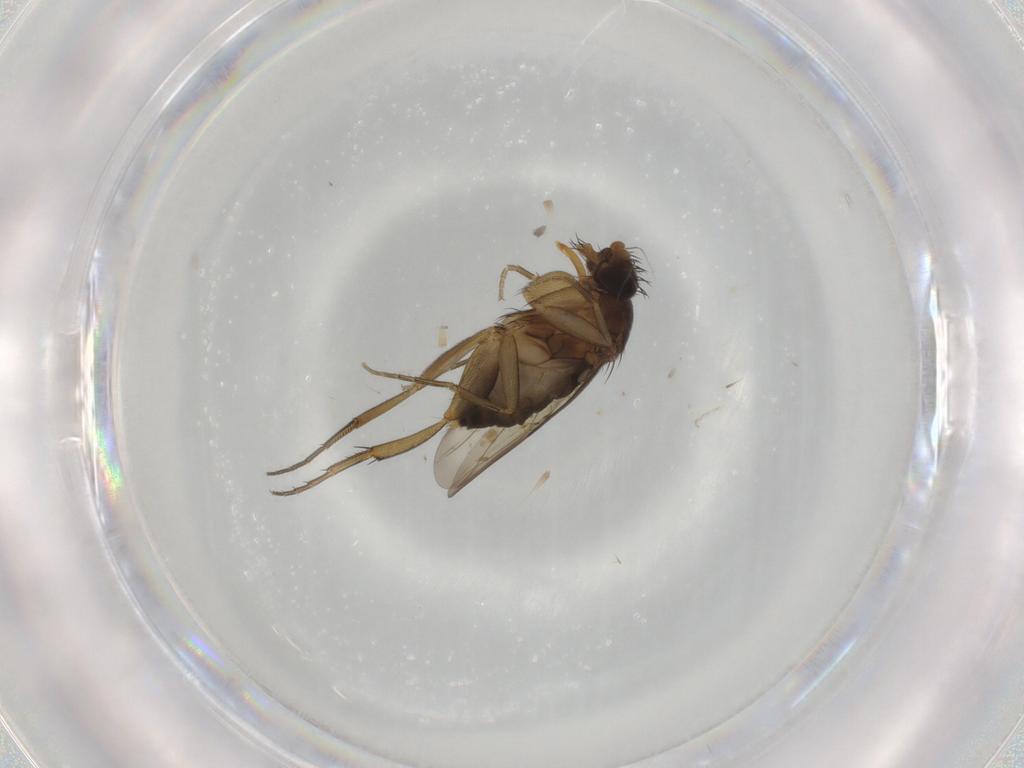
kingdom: Animalia
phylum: Arthropoda
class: Insecta
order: Diptera
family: Phoridae
